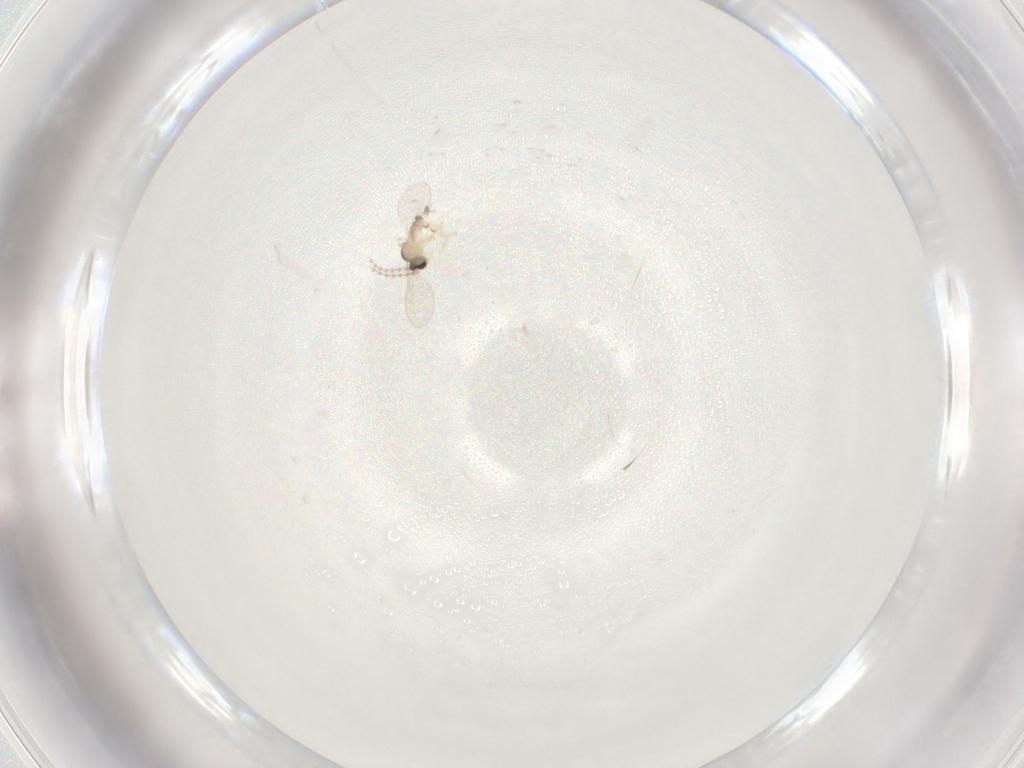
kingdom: Animalia
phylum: Arthropoda
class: Insecta
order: Diptera
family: Cecidomyiidae
